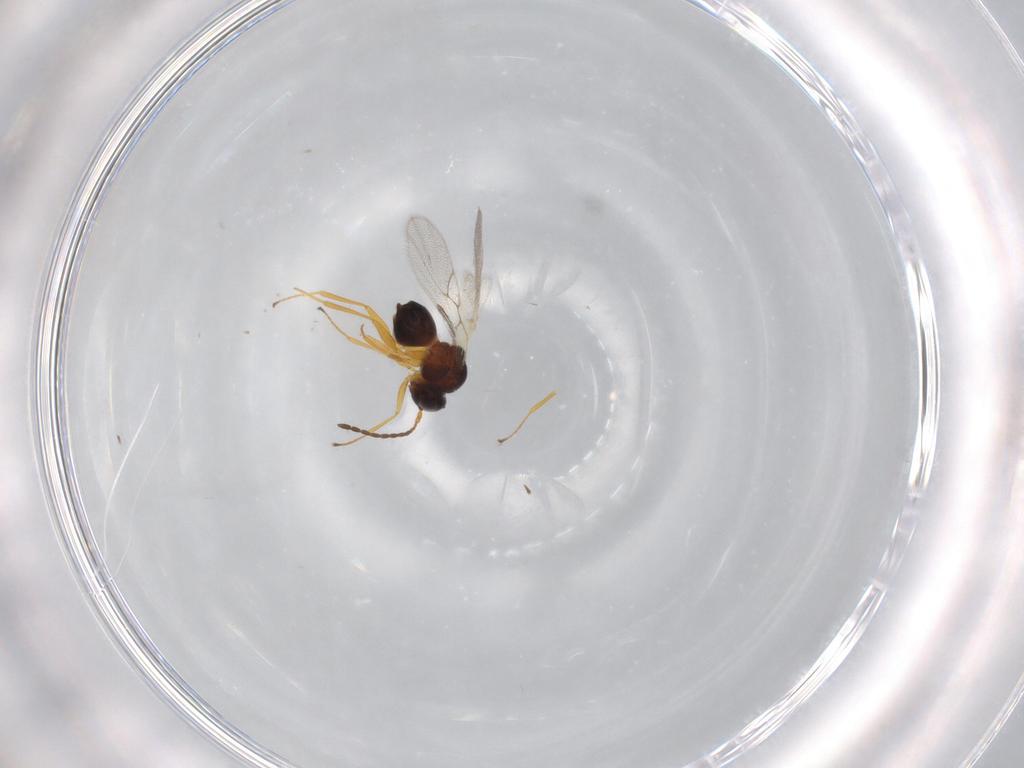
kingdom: Animalia
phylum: Arthropoda
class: Insecta
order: Hymenoptera
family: Figitidae
